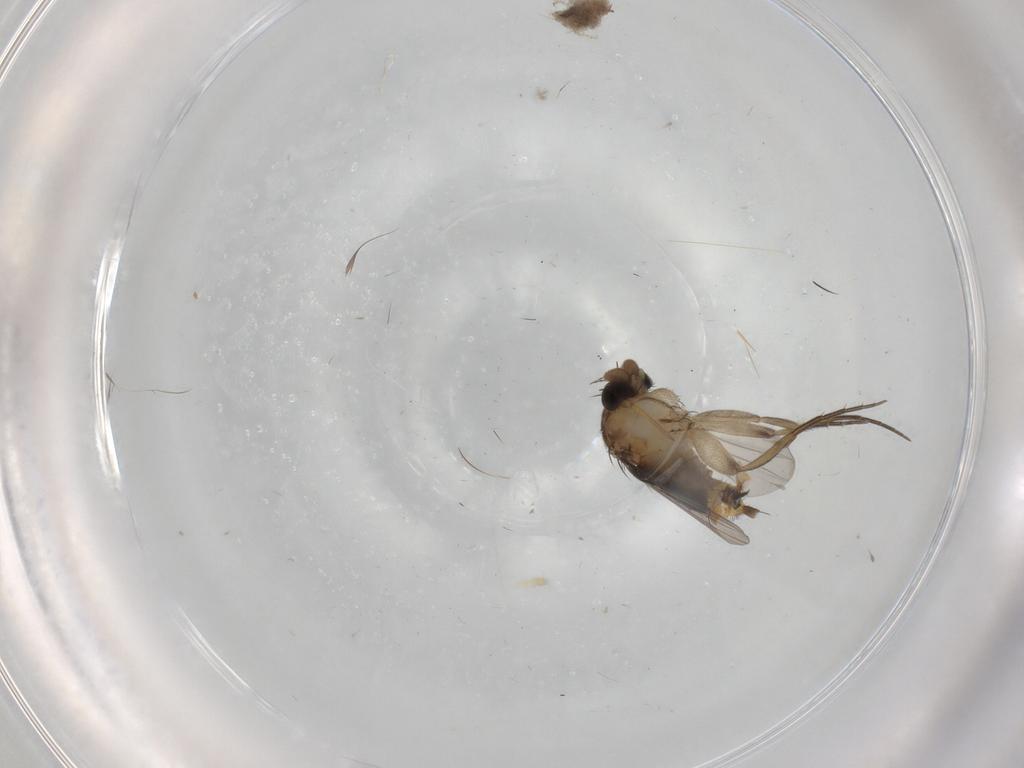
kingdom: Animalia
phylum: Arthropoda
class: Insecta
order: Diptera
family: Phoridae
